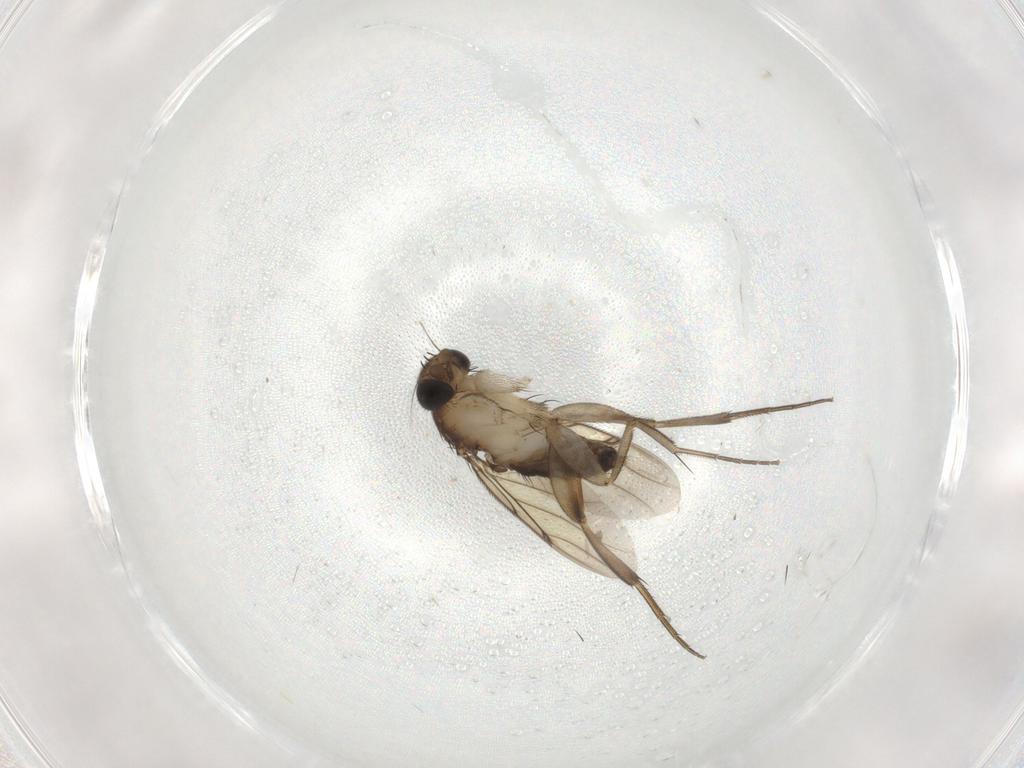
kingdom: Animalia
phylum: Arthropoda
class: Insecta
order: Diptera
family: Phoridae
